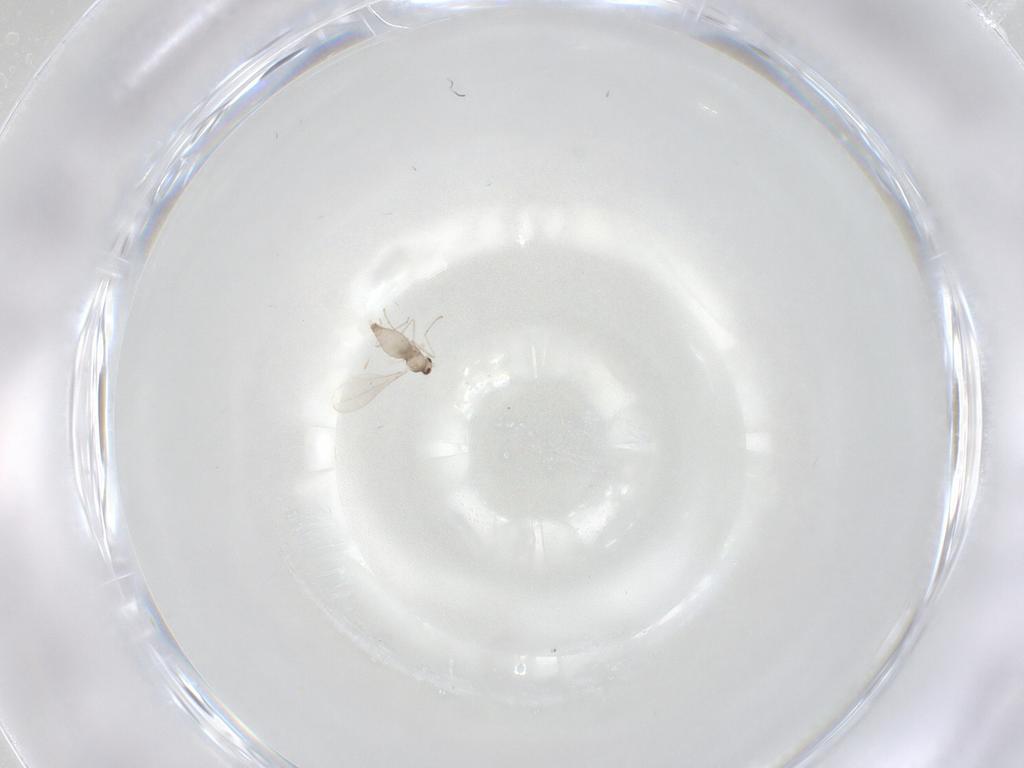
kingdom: Animalia
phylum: Arthropoda
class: Insecta
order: Diptera
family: Cecidomyiidae
